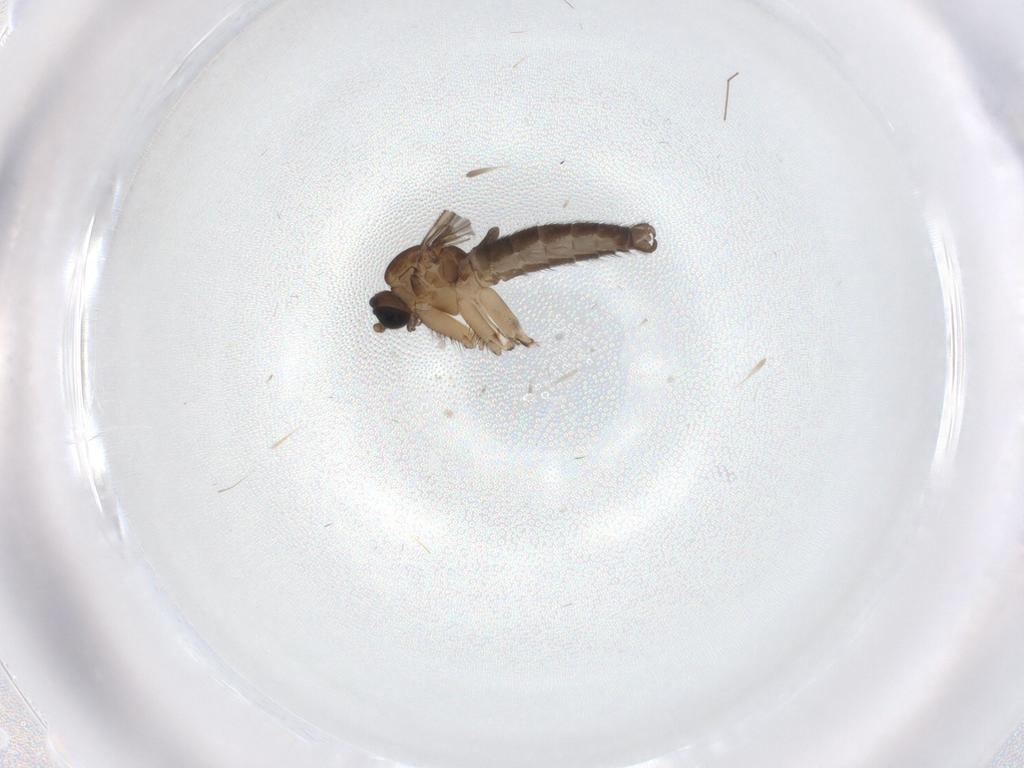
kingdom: Animalia
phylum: Arthropoda
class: Insecta
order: Diptera
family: Sciaridae
